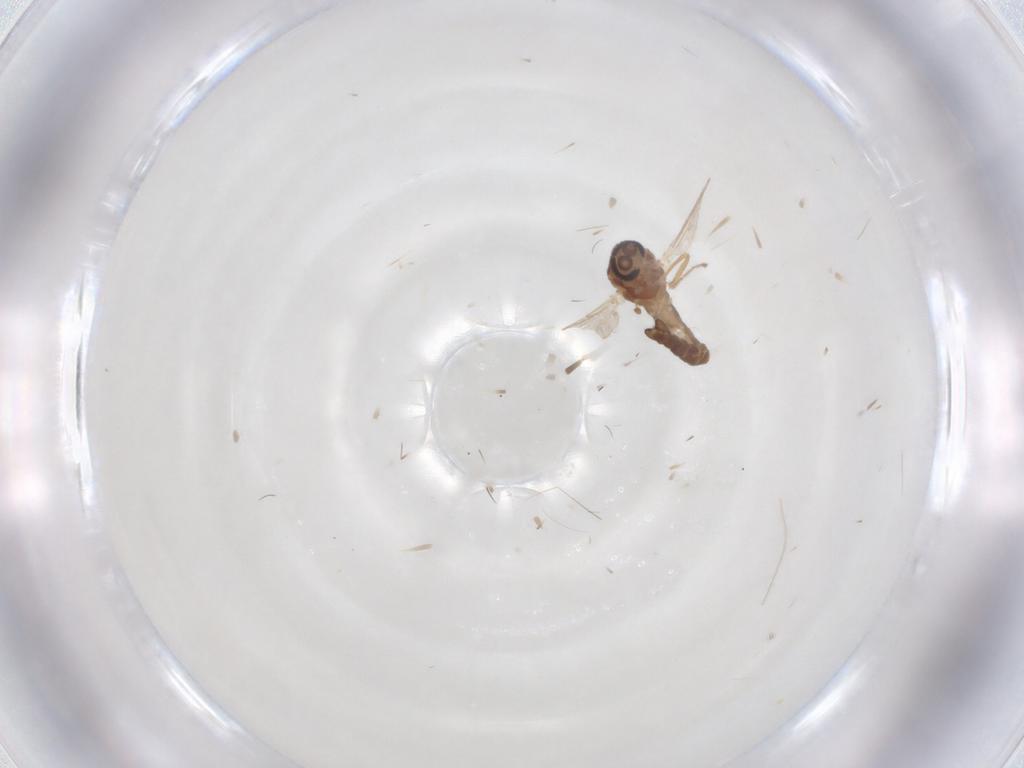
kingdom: Animalia
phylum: Arthropoda
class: Insecta
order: Diptera
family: Ceratopogonidae
